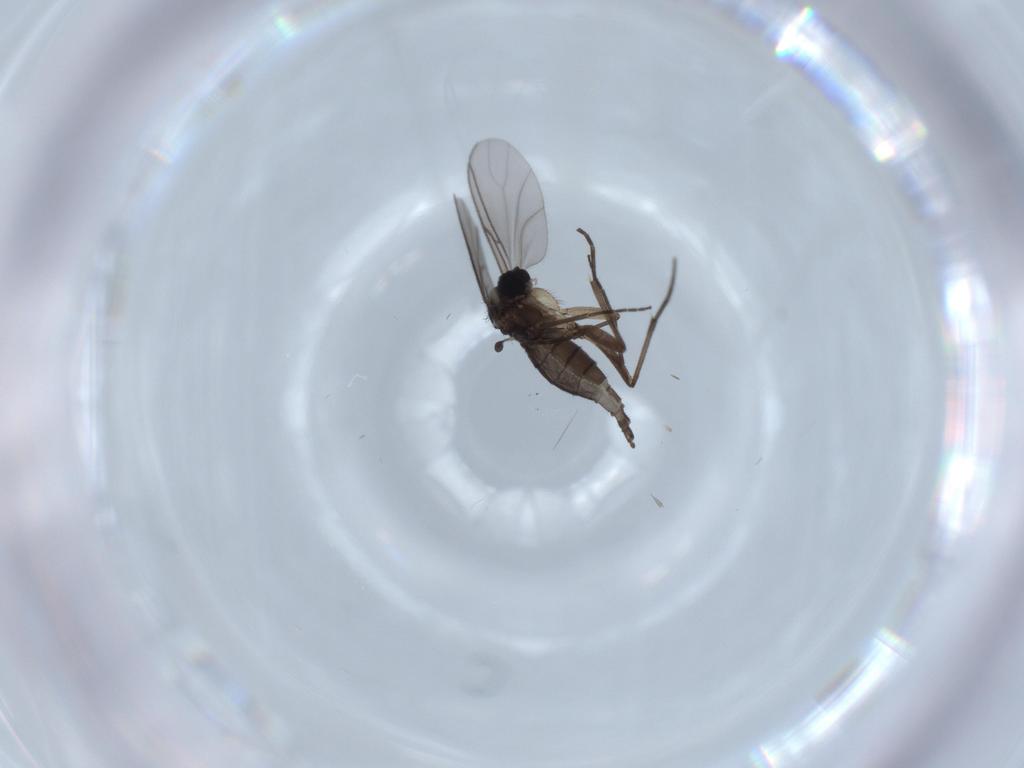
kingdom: Animalia
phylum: Arthropoda
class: Insecta
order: Diptera
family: Sciaridae
